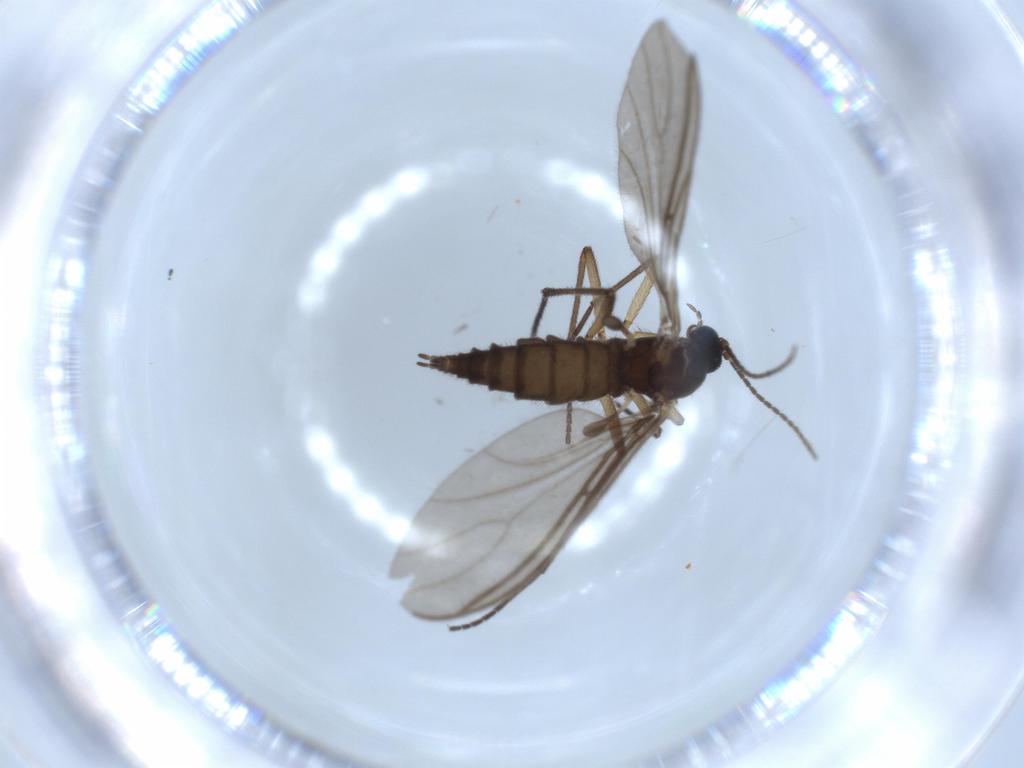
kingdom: Animalia
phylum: Arthropoda
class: Insecta
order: Diptera
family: Sciaridae
